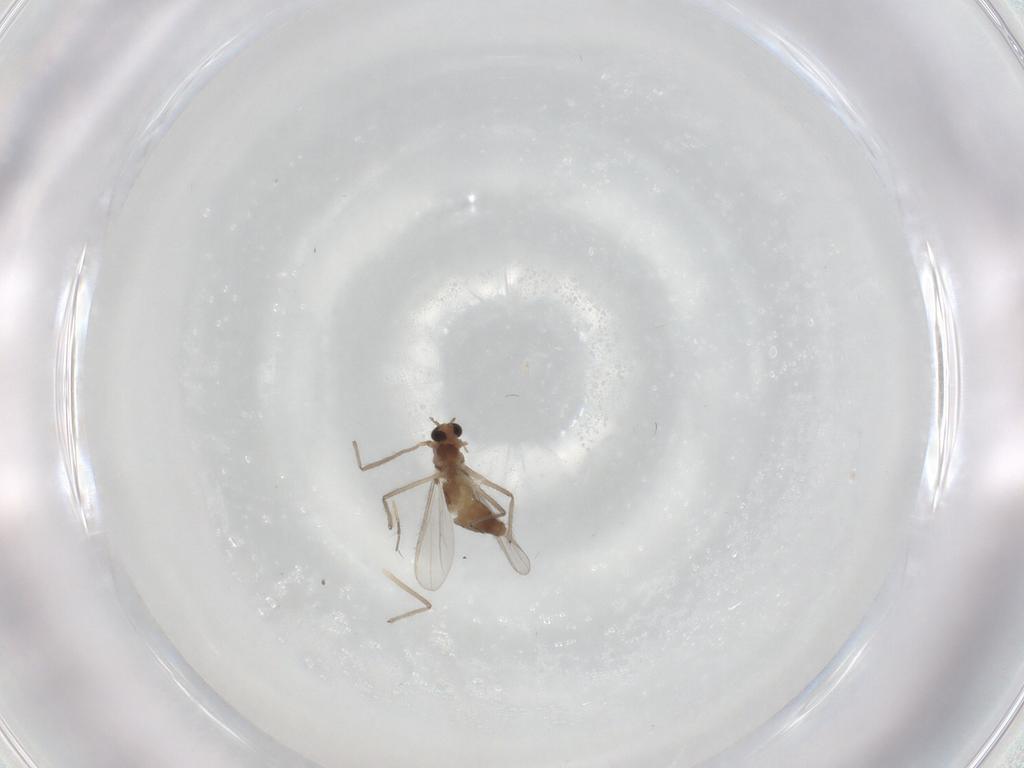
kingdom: Animalia
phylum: Arthropoda
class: Insecta
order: Diptera
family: Chironomidae
